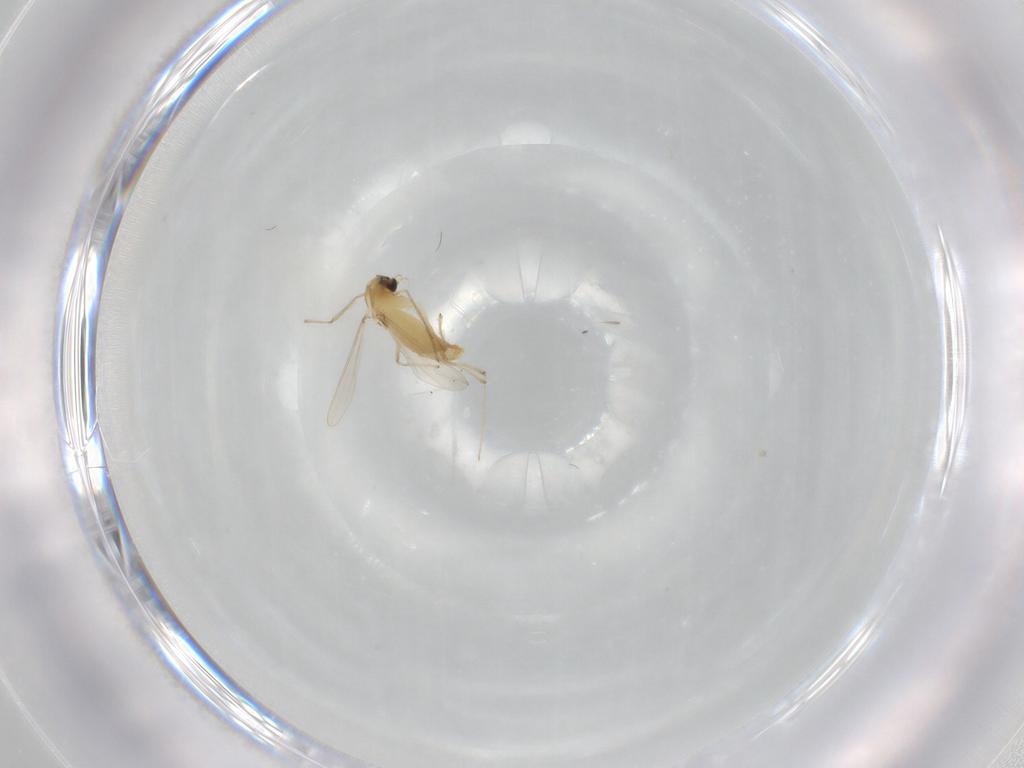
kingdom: Animalia
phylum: Arthropoda
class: Insecta
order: Diptera
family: Chironomidae
